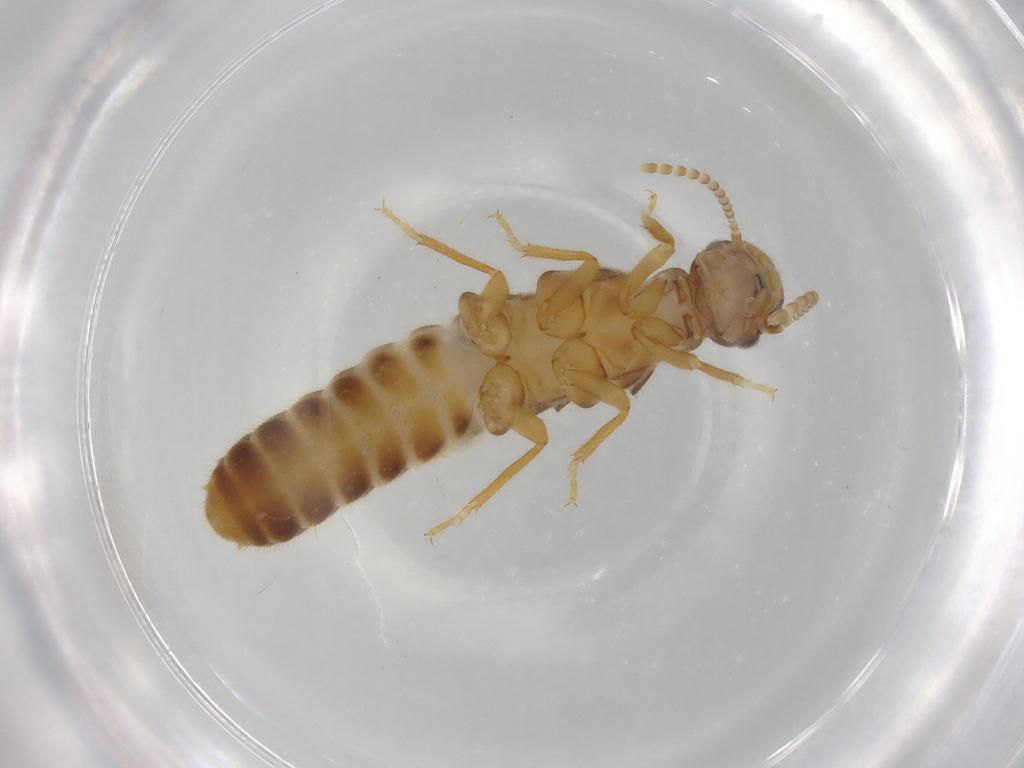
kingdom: Animalia
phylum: Arthropoda
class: Insecta
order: Blattodea
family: Termitidae
